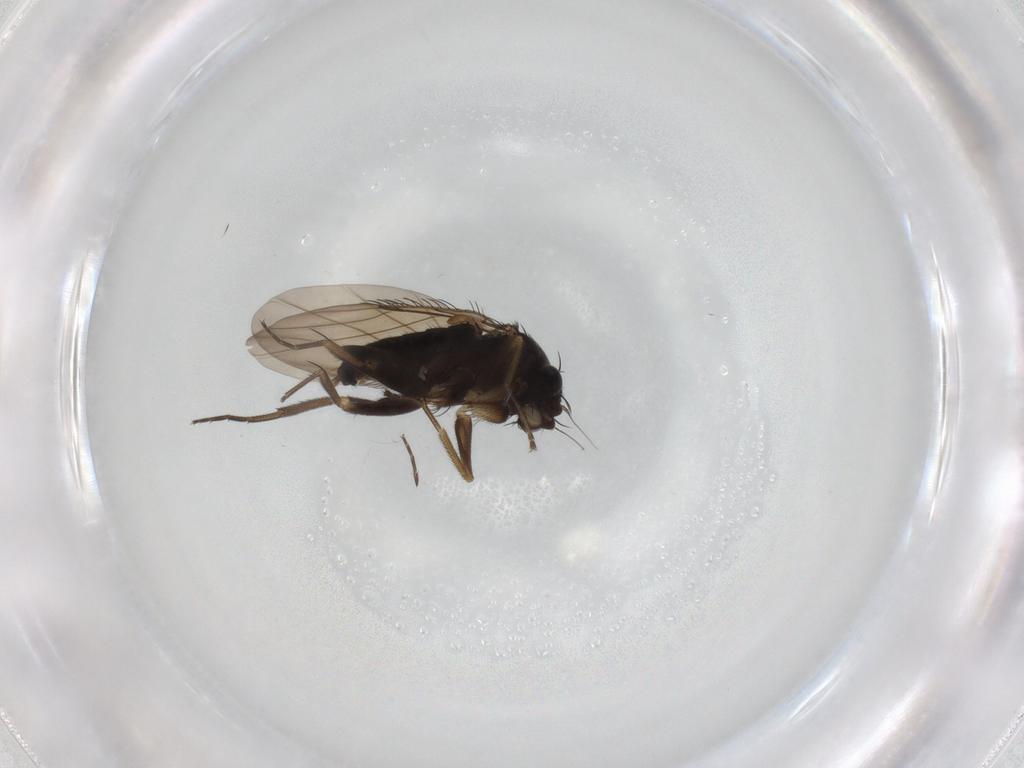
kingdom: Animalia
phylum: Arthropoda
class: Insecta
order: Diptera
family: Phoridae
